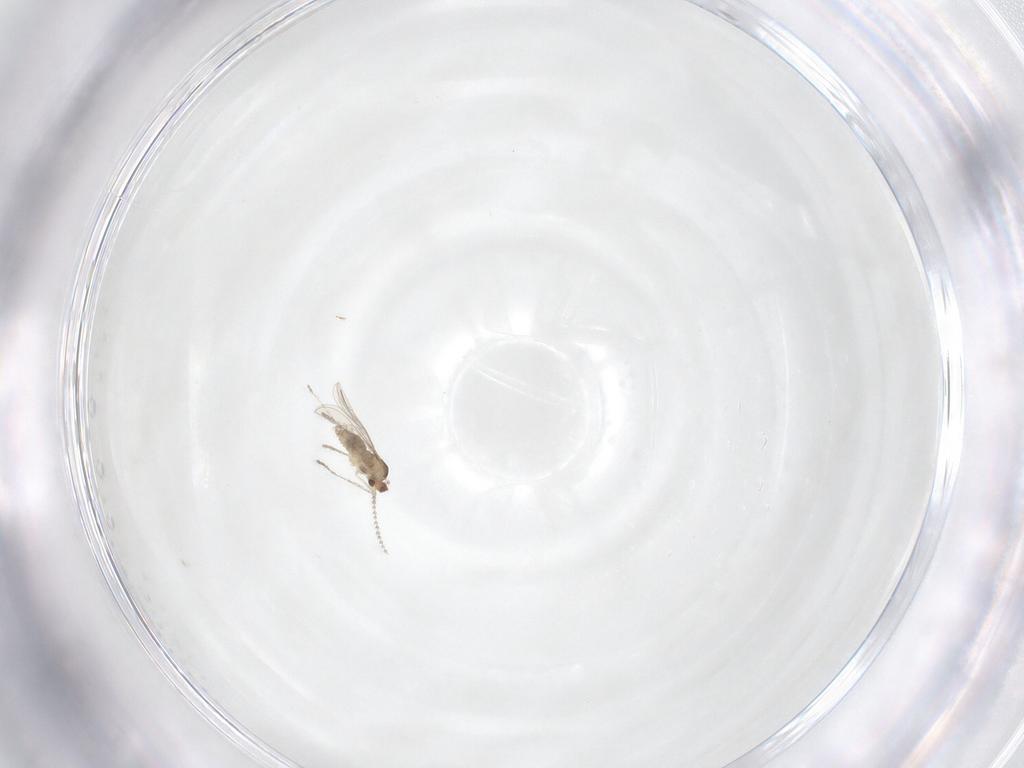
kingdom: Animalia
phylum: Arthropoda
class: Insecta
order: Diptera
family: Cecidomyiidae
